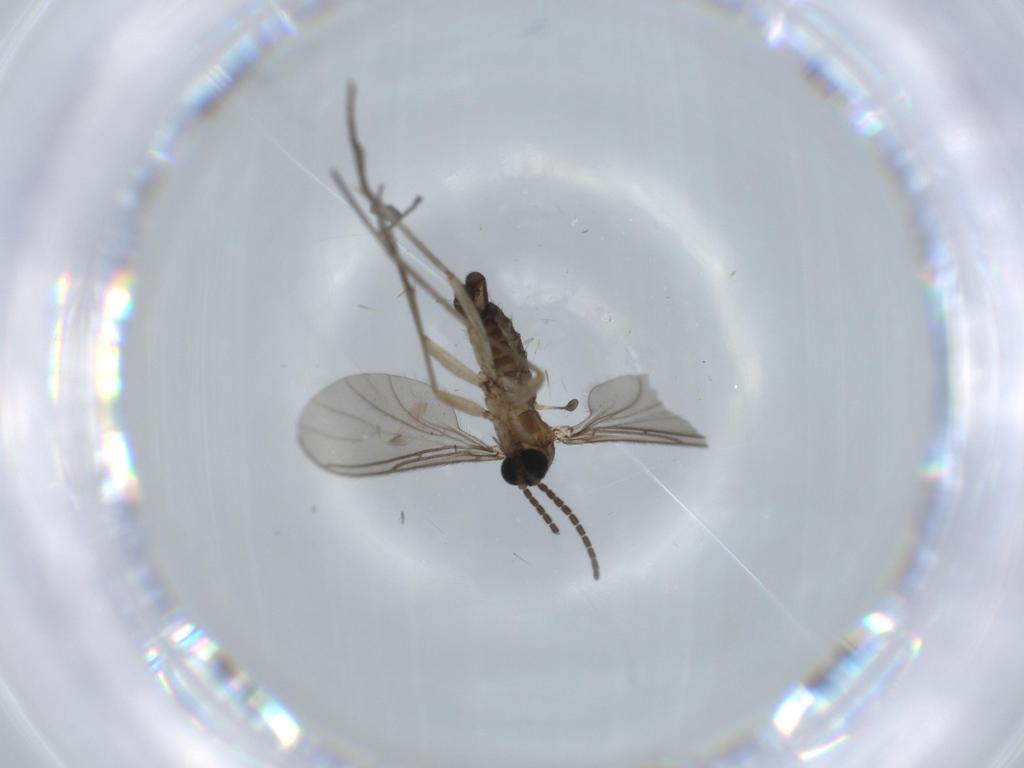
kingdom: Animalia
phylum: Arthropoda
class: Insecta
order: Diptera
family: Sciaridae
